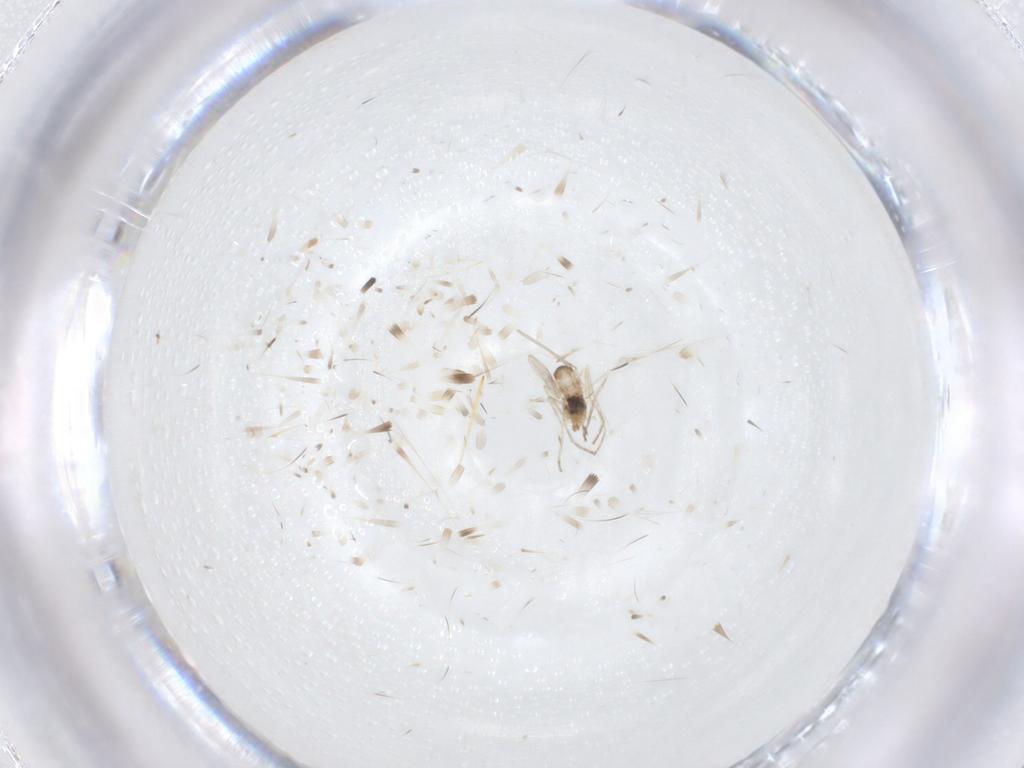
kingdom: Animalia
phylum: Arthropoda
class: Insecta
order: Diptera
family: Cecidomyiidae
